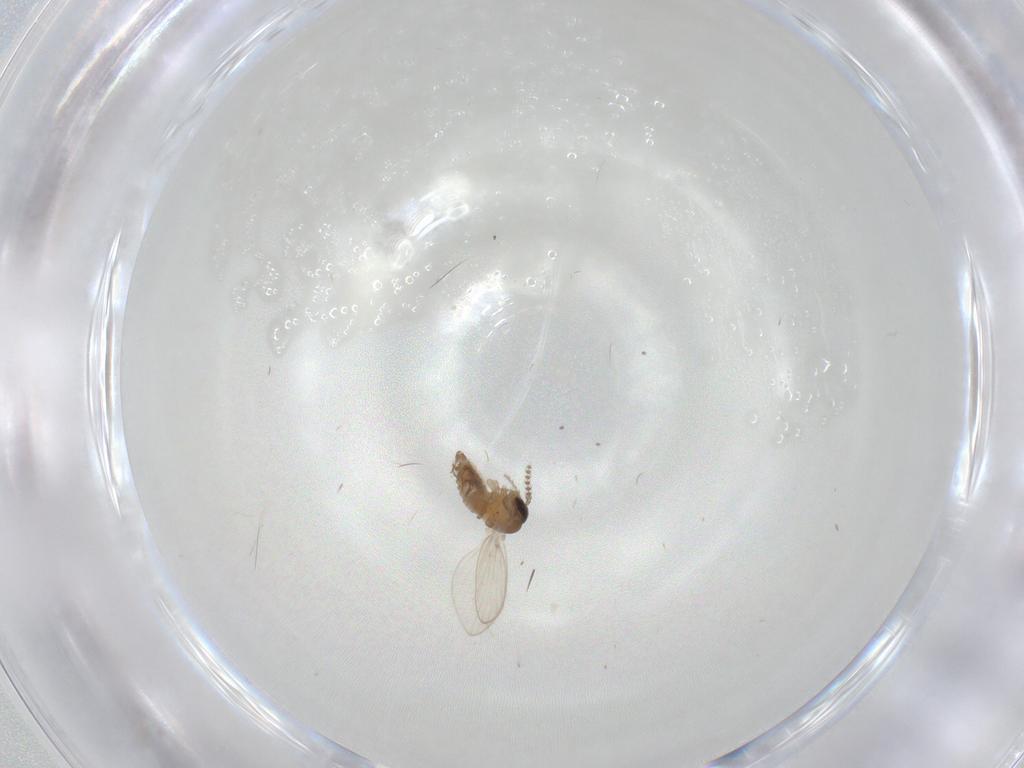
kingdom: Animalia
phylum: Arthropoda
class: Insecta
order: Diptera
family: Psychodidae
